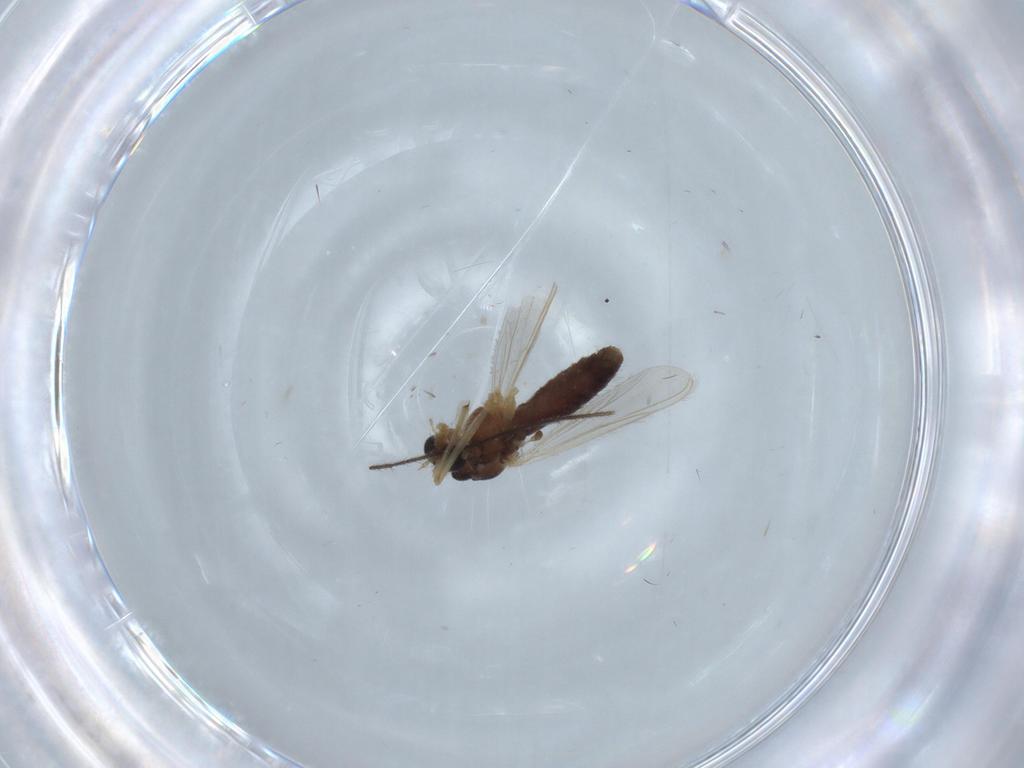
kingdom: Animalia
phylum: Arthropoda
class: Insecta
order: Diptera
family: Chironomidae
